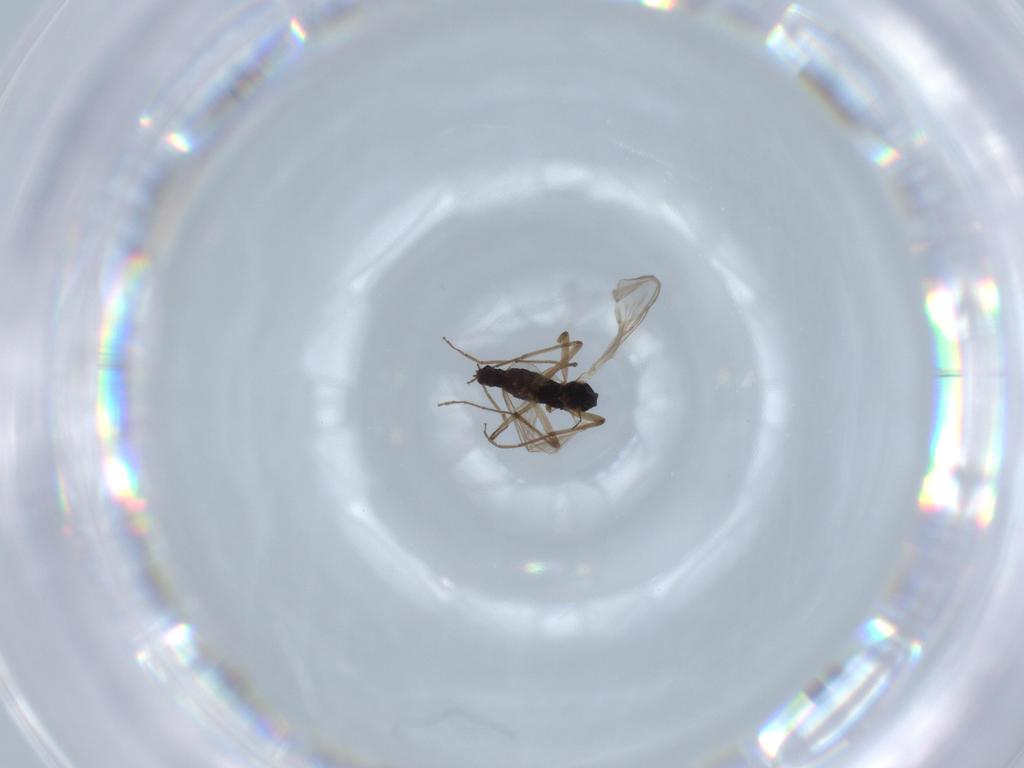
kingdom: Animalia
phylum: Arthropoda
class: Insecta
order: Diptera
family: Chironomidae
